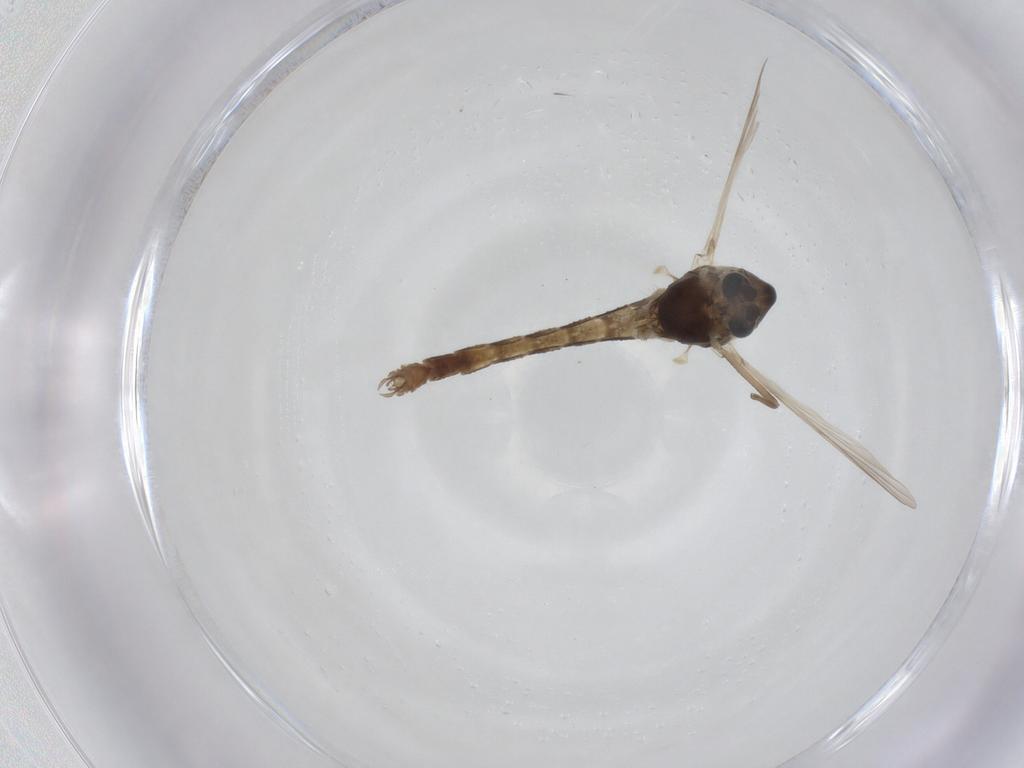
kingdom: Animalia
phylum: Arthropoda
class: Insecta
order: Diptera
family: Chironomidae
